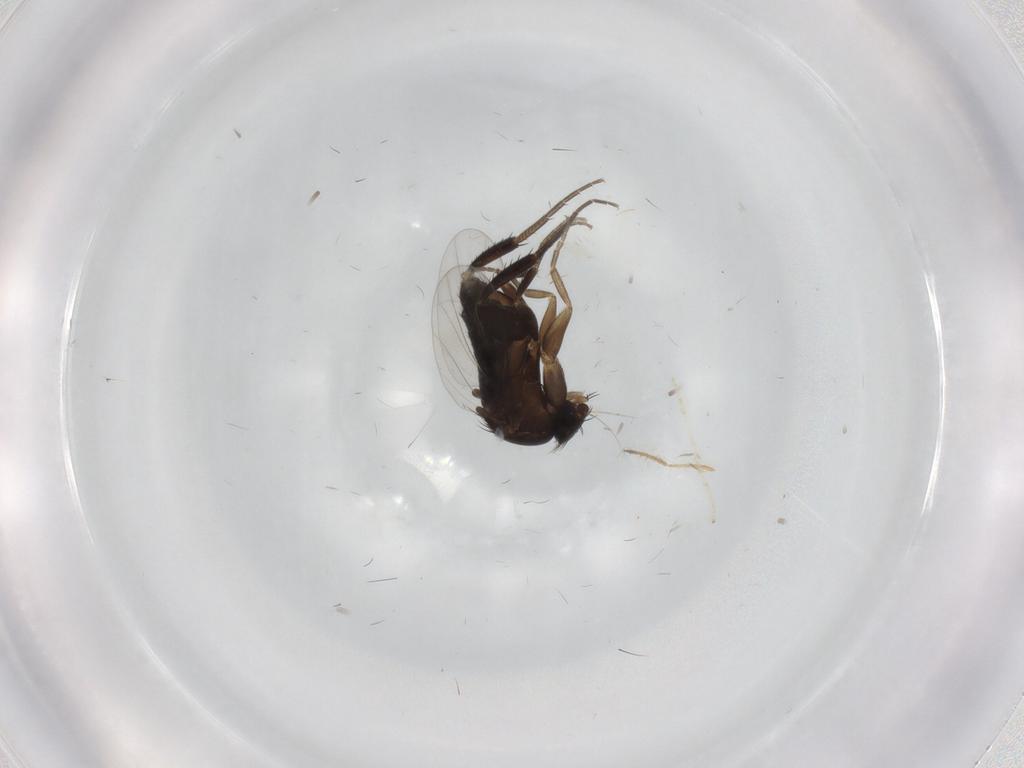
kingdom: Animalia
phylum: Arthropoda
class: Insecta
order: Diptera
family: Phoridae
